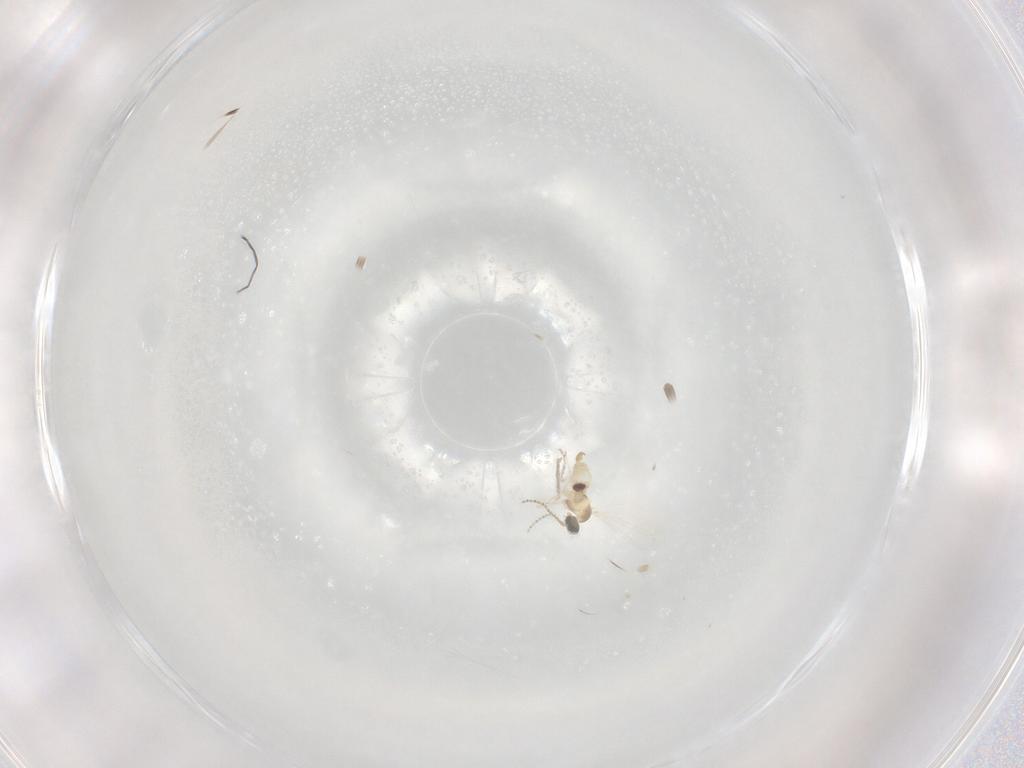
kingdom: Animalia
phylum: Arthropoda
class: Insecta
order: Diptera
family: Cecidomyiidae
